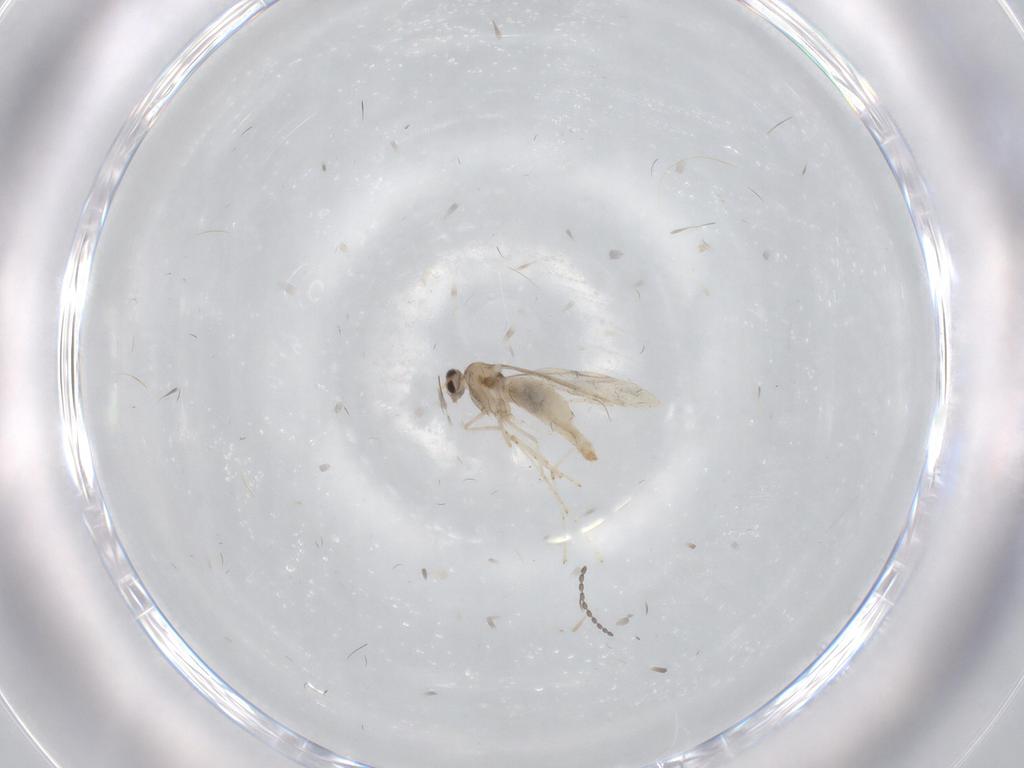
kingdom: Animalia
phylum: Arthropoda
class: Insecta
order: Diptera
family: Cecidomyiidae
